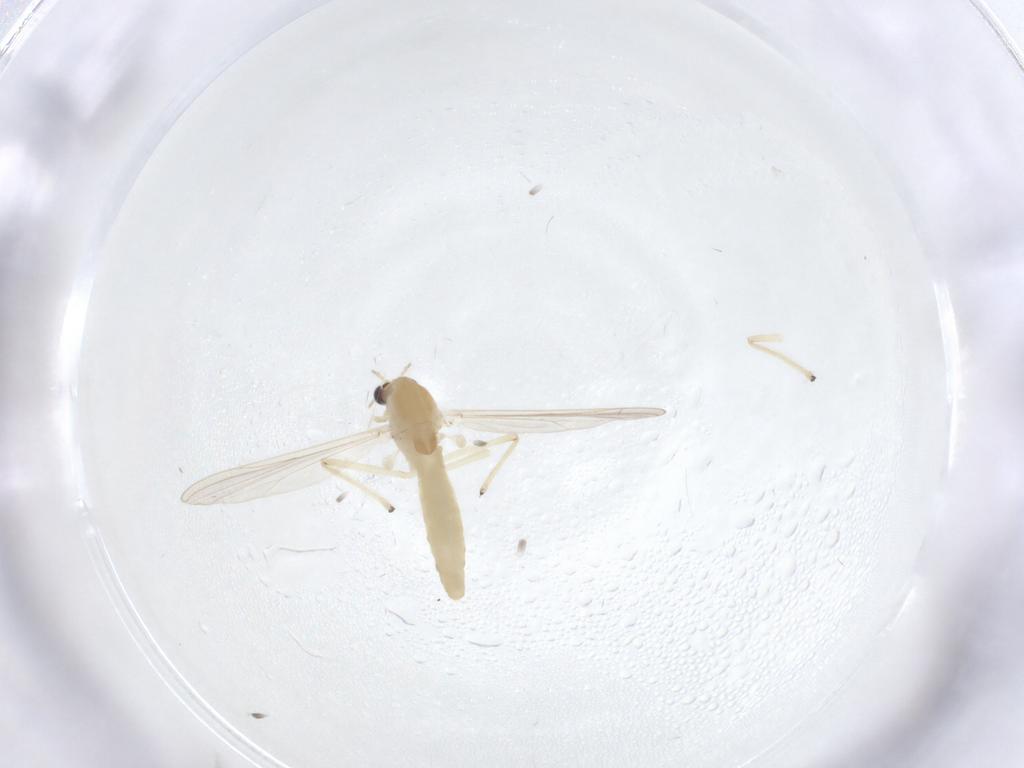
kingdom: Animalia
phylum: Arthropoda
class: Insecta
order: Diptera
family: Chironomidae
